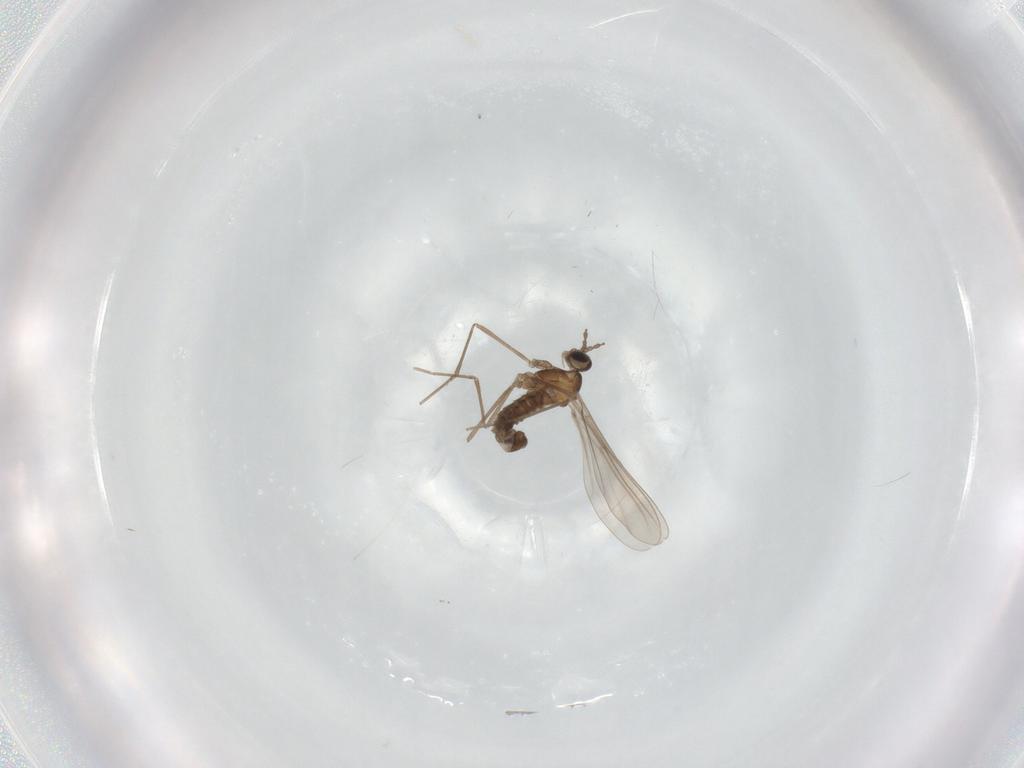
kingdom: Animalia
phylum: Arthropoda
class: Insecta
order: Diptera
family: Cecidomyiidae
